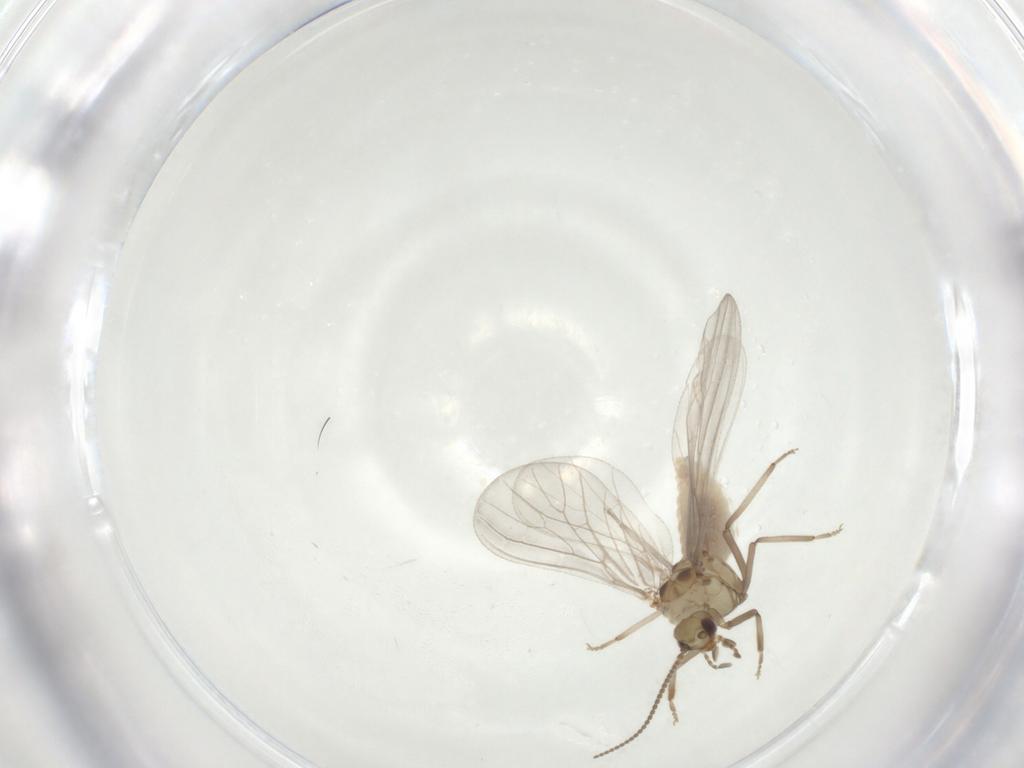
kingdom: Animalia
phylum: Arthropoda
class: Insecta
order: Neuroptera
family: Coniopterygidae
